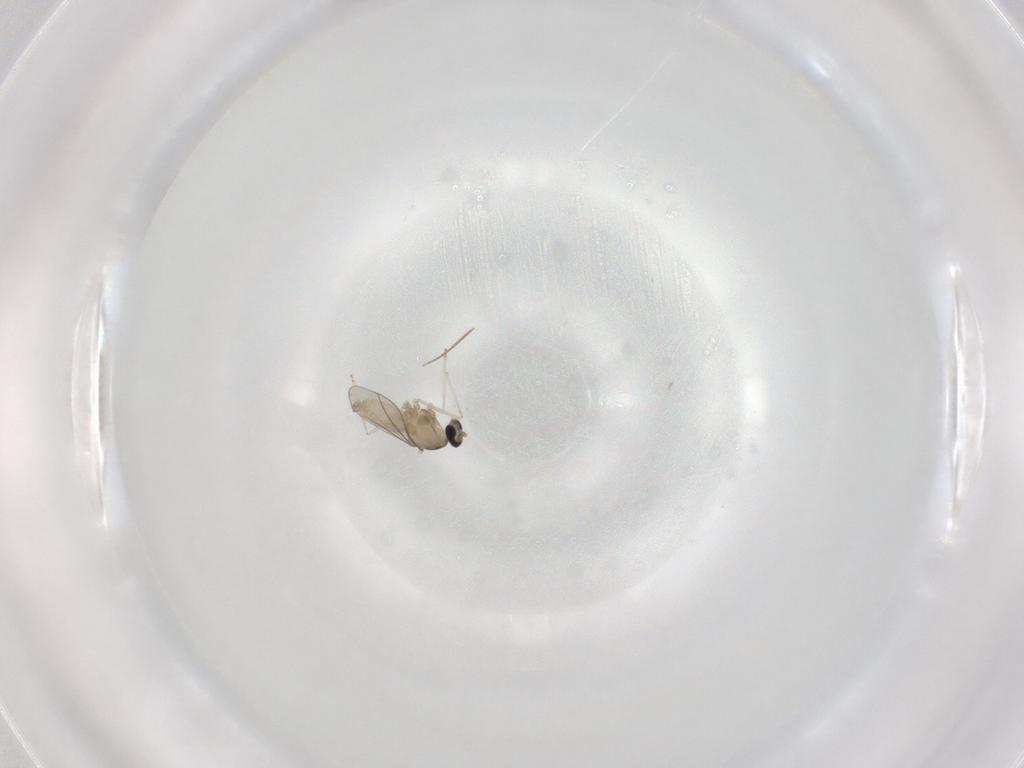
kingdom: Animalia
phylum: Arthropoda
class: Insecta
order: Diptera
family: Cecidomyiidae
